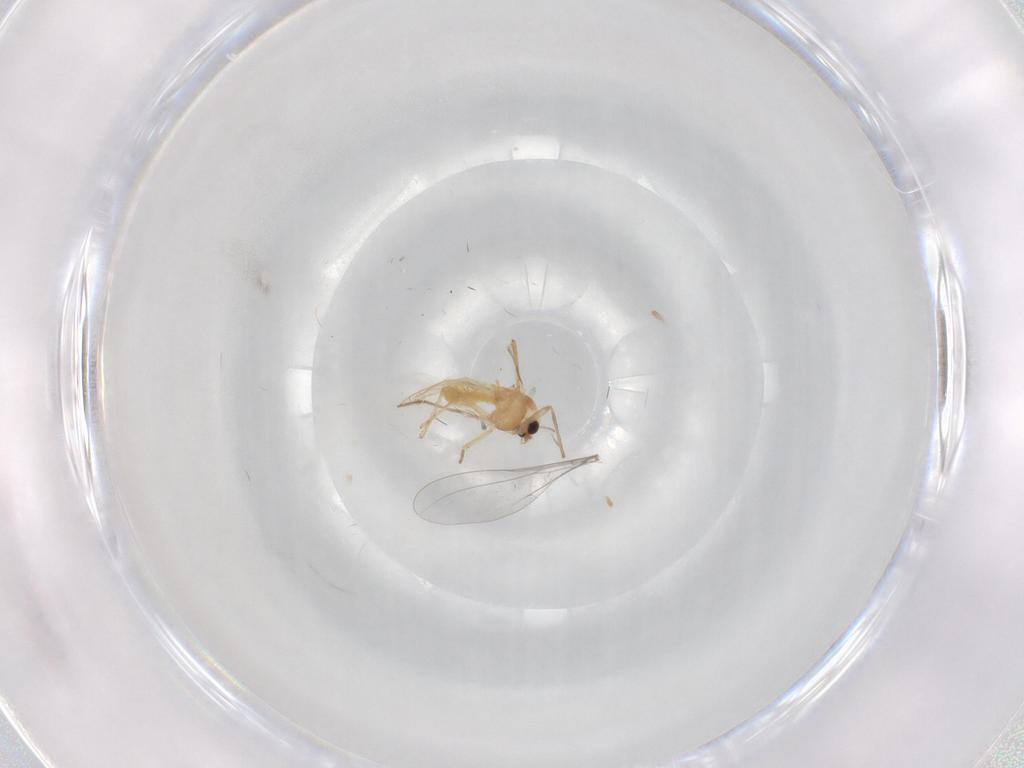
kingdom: Animalia
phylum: Arthropoda
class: Insecta
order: Diptera
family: Chironomidae
